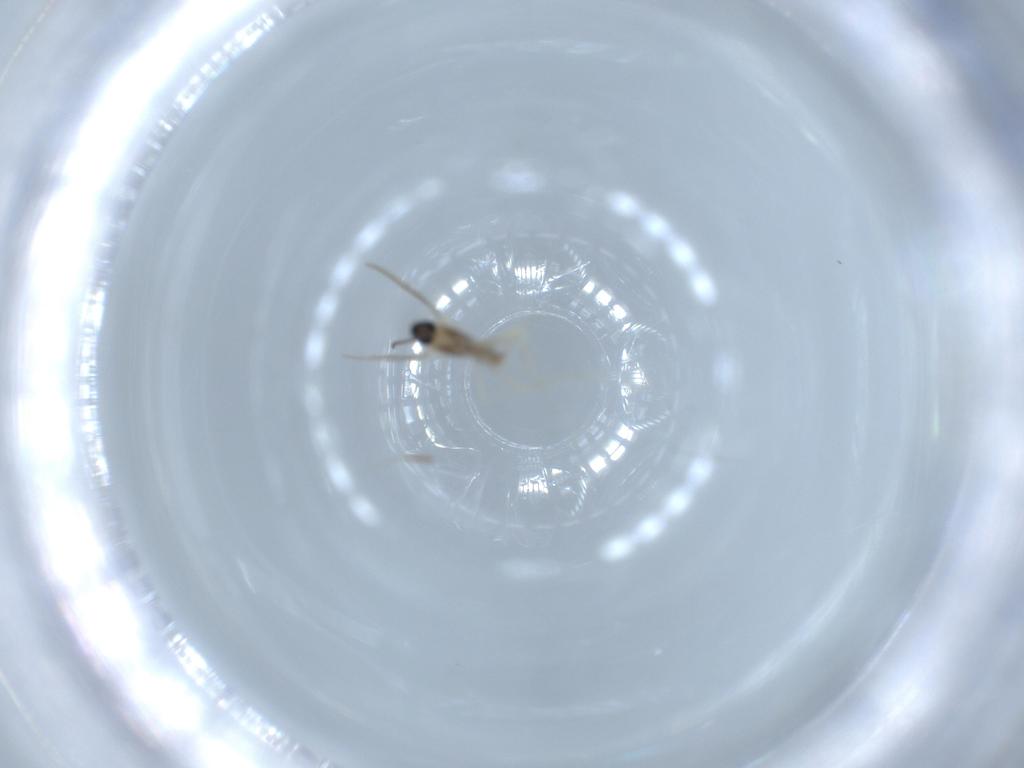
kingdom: Animalia
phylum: Arthropoda
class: Insecta
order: Diptera
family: Cecidomyiidae
